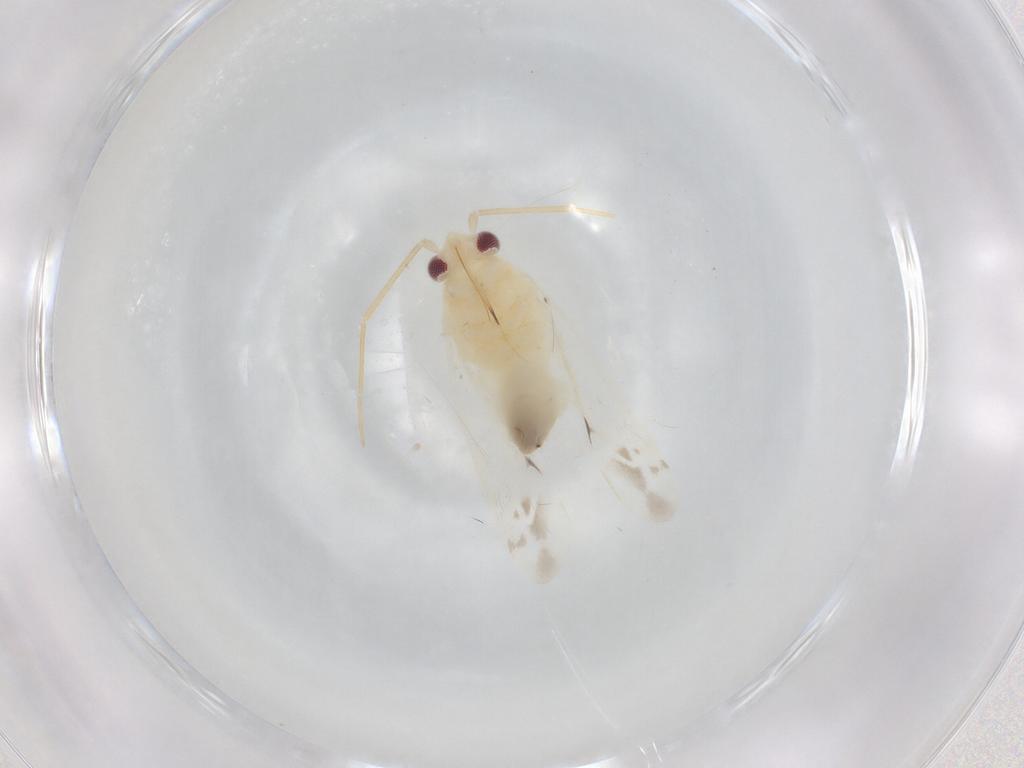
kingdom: Animalia
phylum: Arthropoda
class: Insecta
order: Hemiptera
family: Miridae
